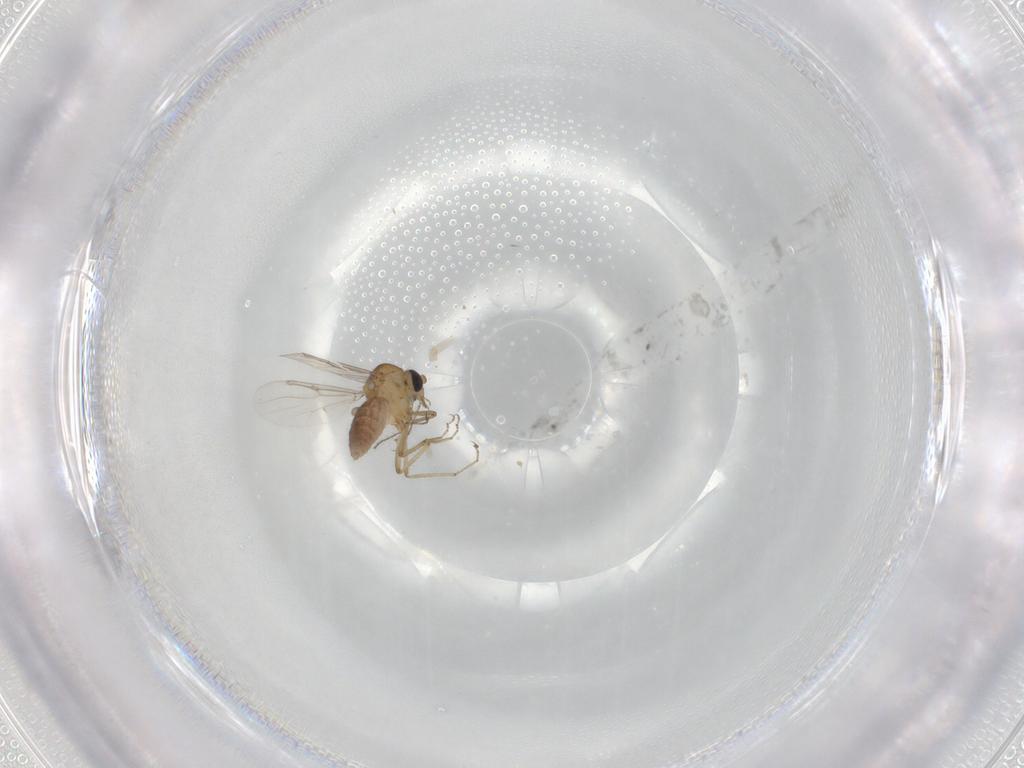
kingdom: Animalia
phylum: Arthropoda
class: Insecta
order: Diptera
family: Ceratopogonidae
